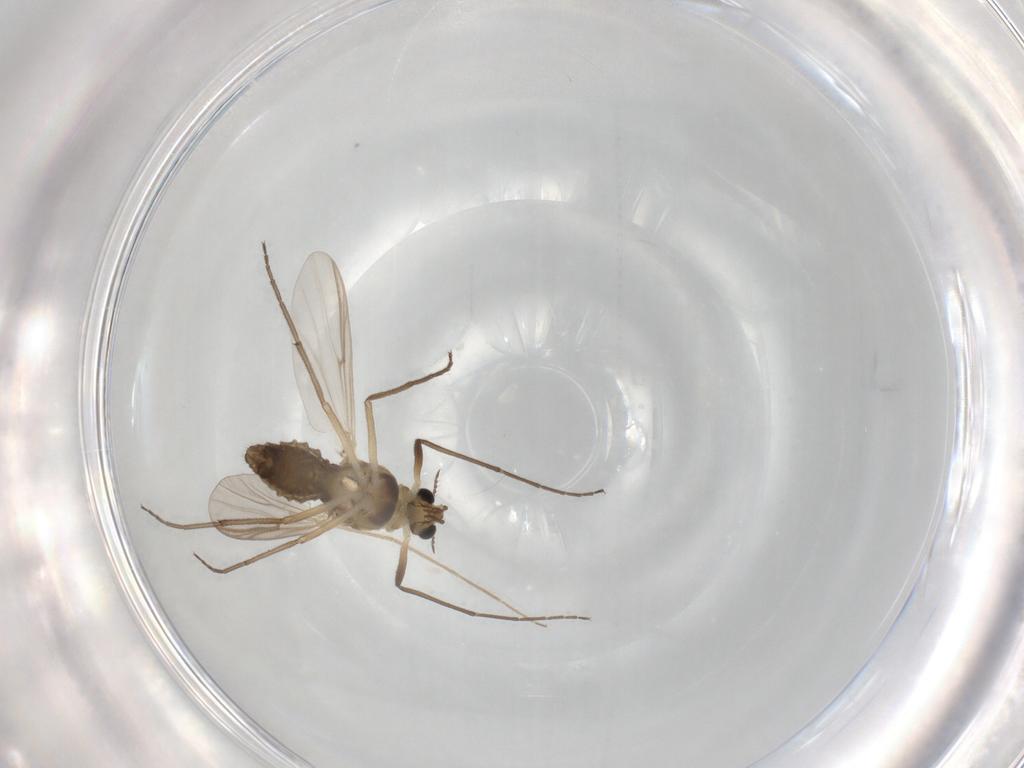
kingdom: Animalia
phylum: Arthropoda
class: Insecta
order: Diptera
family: Chironomidae
